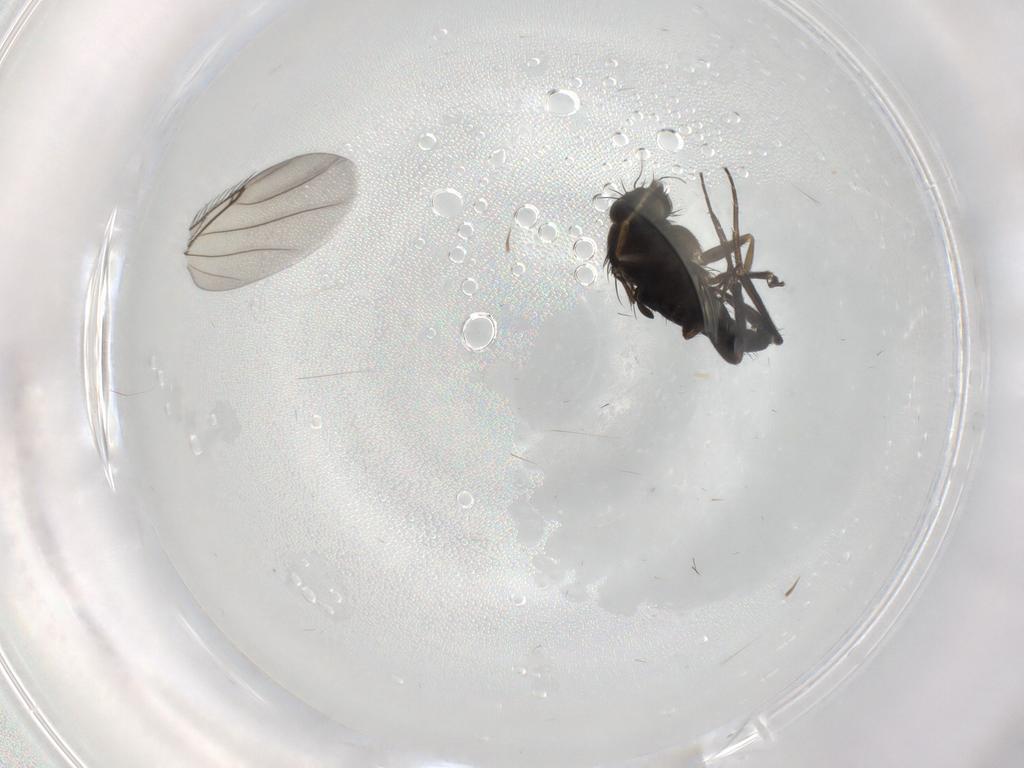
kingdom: Animalia
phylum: Arthropoda
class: Insecta
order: Diptera
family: Phoridae
